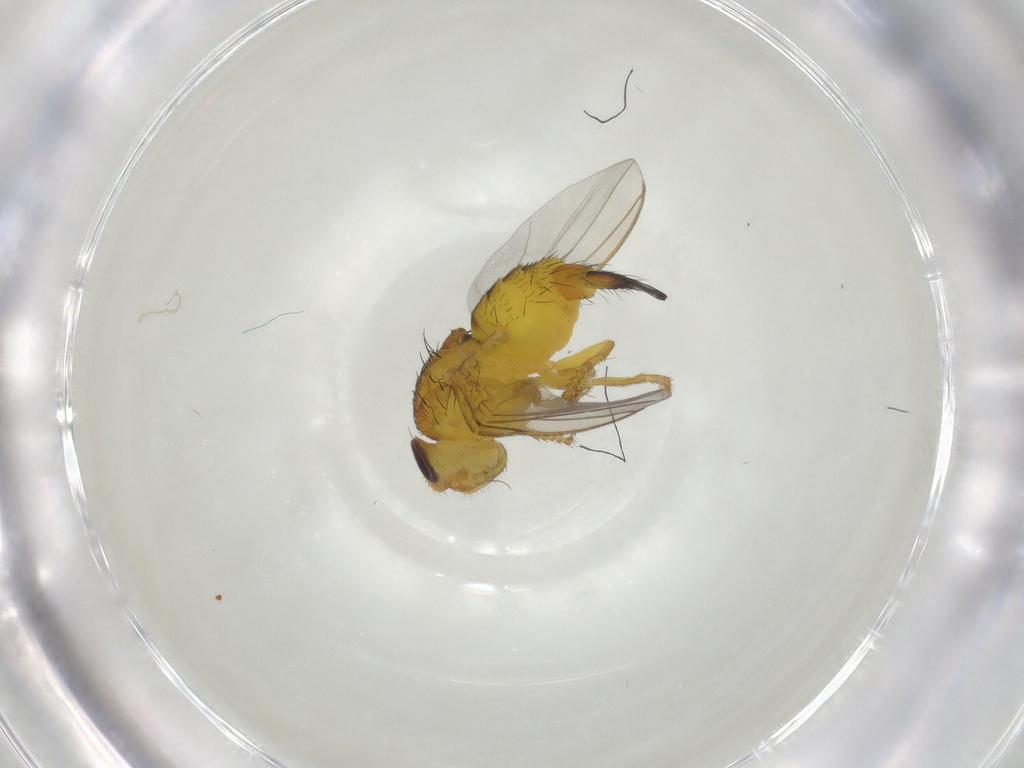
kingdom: Animalia
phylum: Arthropoda
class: Insecta
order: Diptera
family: Fergusoninidae
